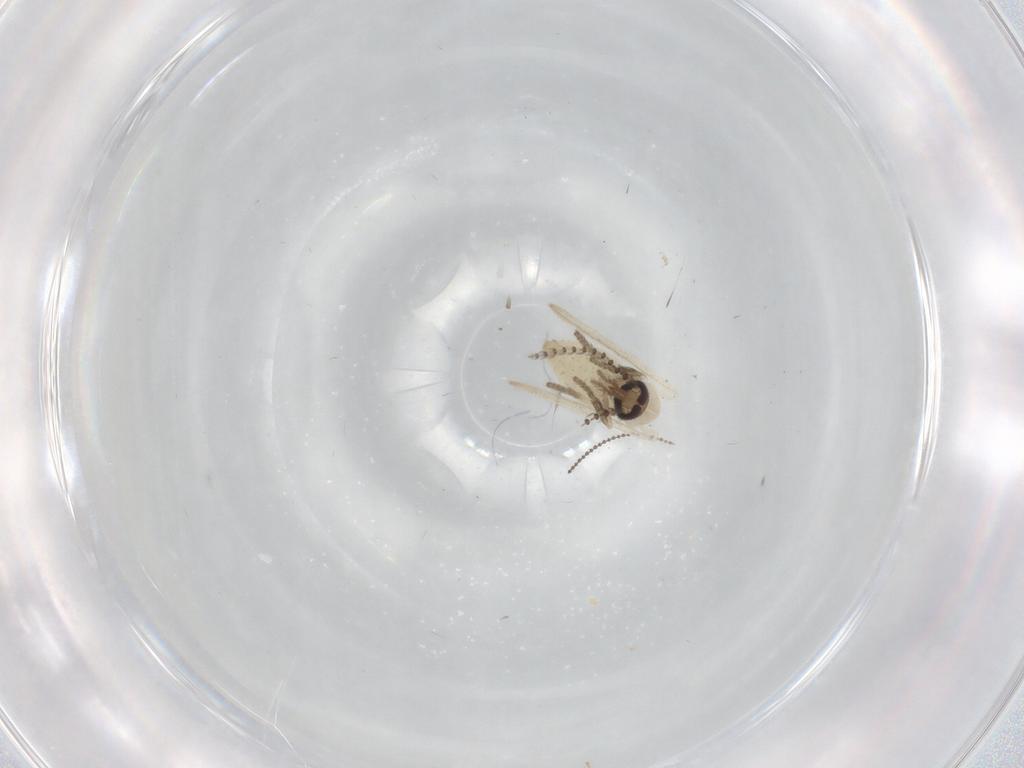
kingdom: Animalia
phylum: Arthropoda
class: Insecta
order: Diptera
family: Psychodidae
